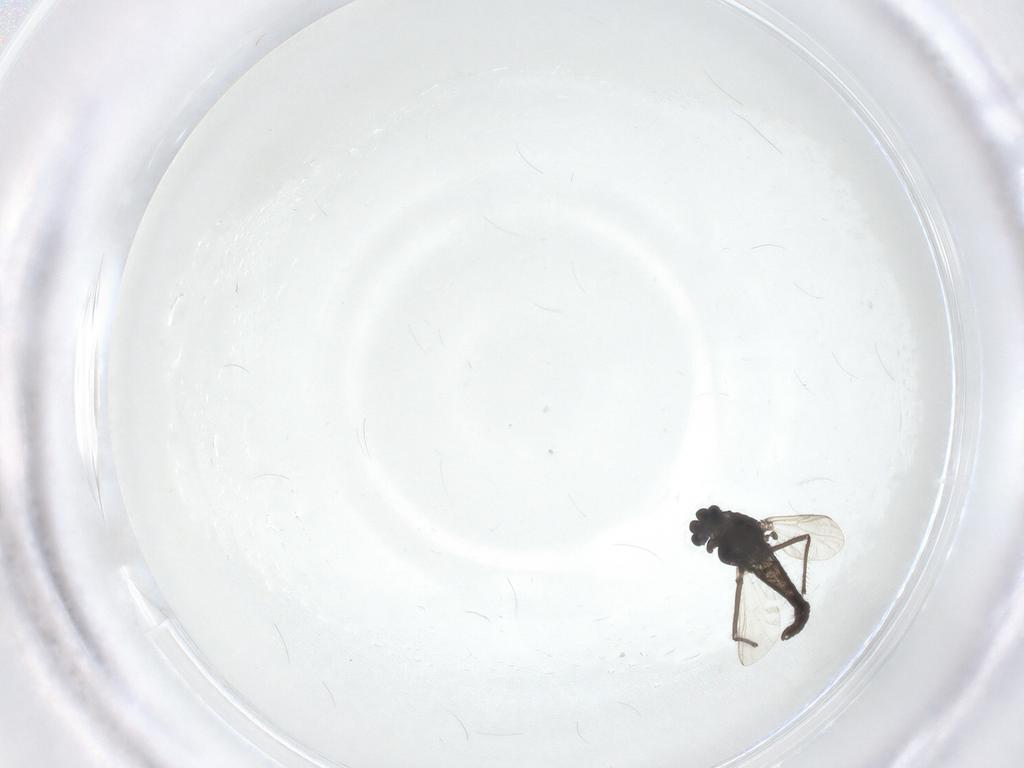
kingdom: Animalia
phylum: Arthropoda
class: Insecta
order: Diptera
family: Chironomidae
